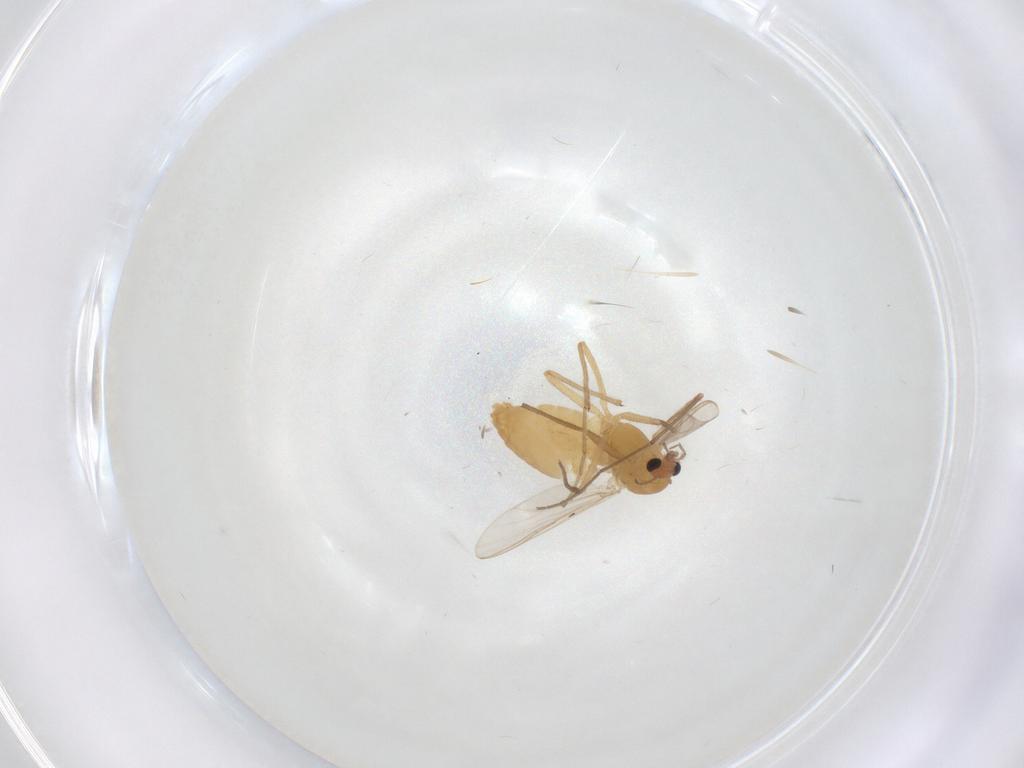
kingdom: Animalia
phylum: Arthropoda
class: Insecta
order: Diptera
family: Chironomidae
